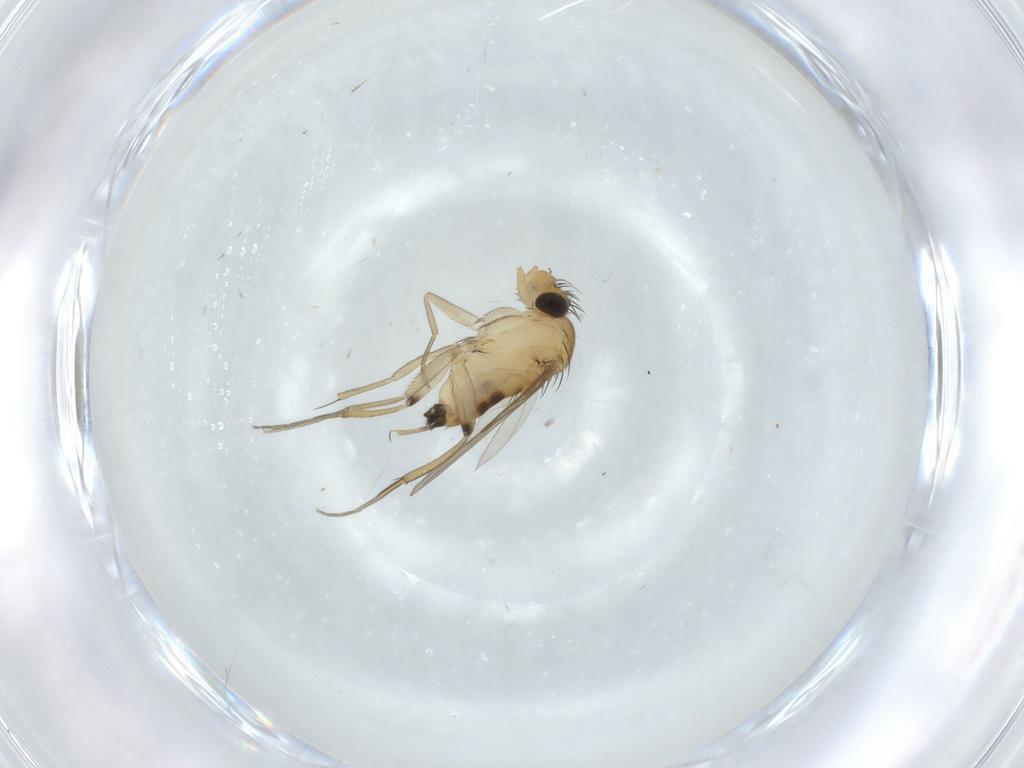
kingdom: Animalia
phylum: Arthropoda
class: Insecta
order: Diptera
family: Phoridae
